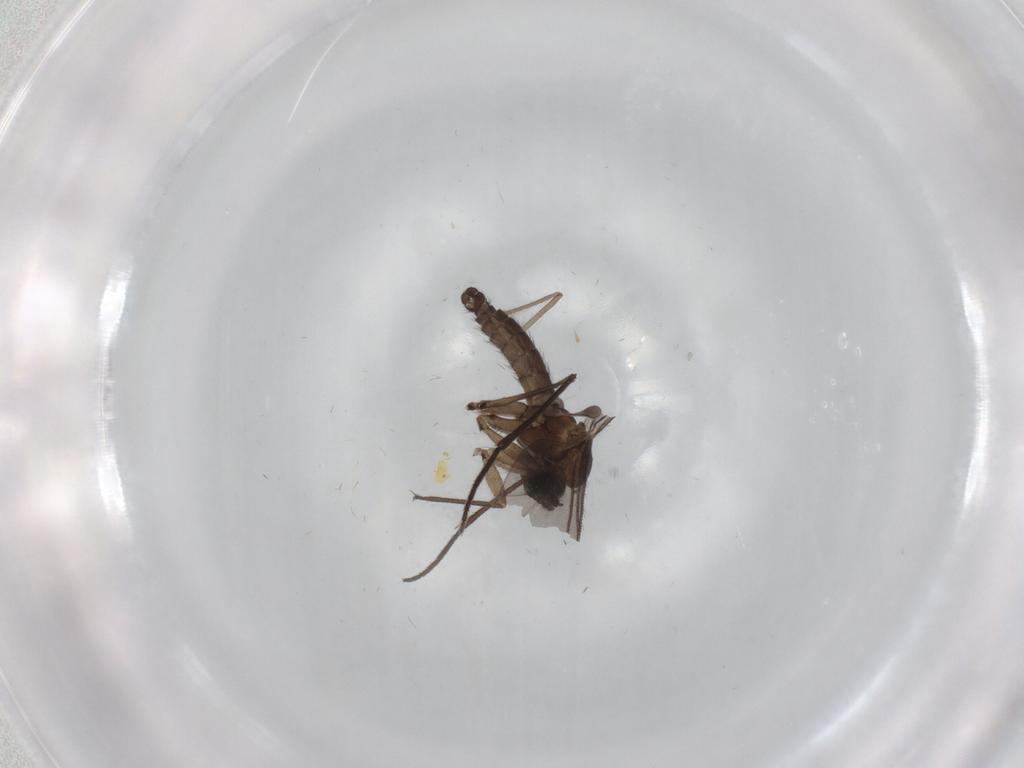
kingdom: Animalia
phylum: Arthropoda
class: Insecta
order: Diptera
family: Sciaridae
